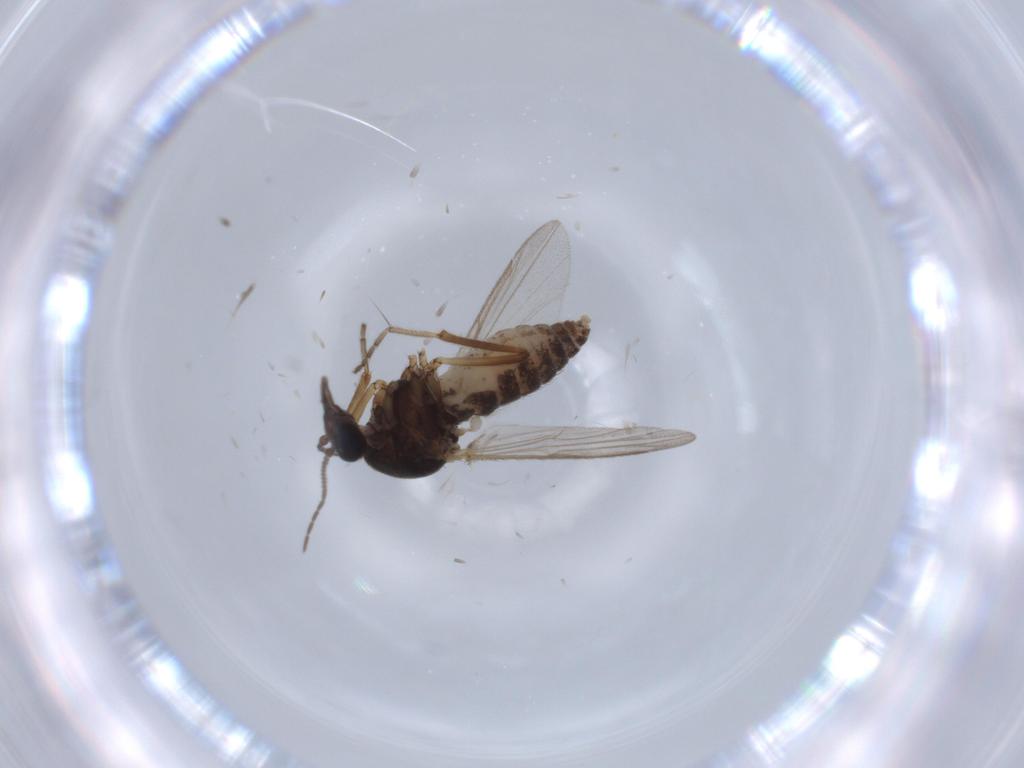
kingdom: Animalia
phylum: Arthropoda
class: Insecta
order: Diptera
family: Ceratopogonidae
